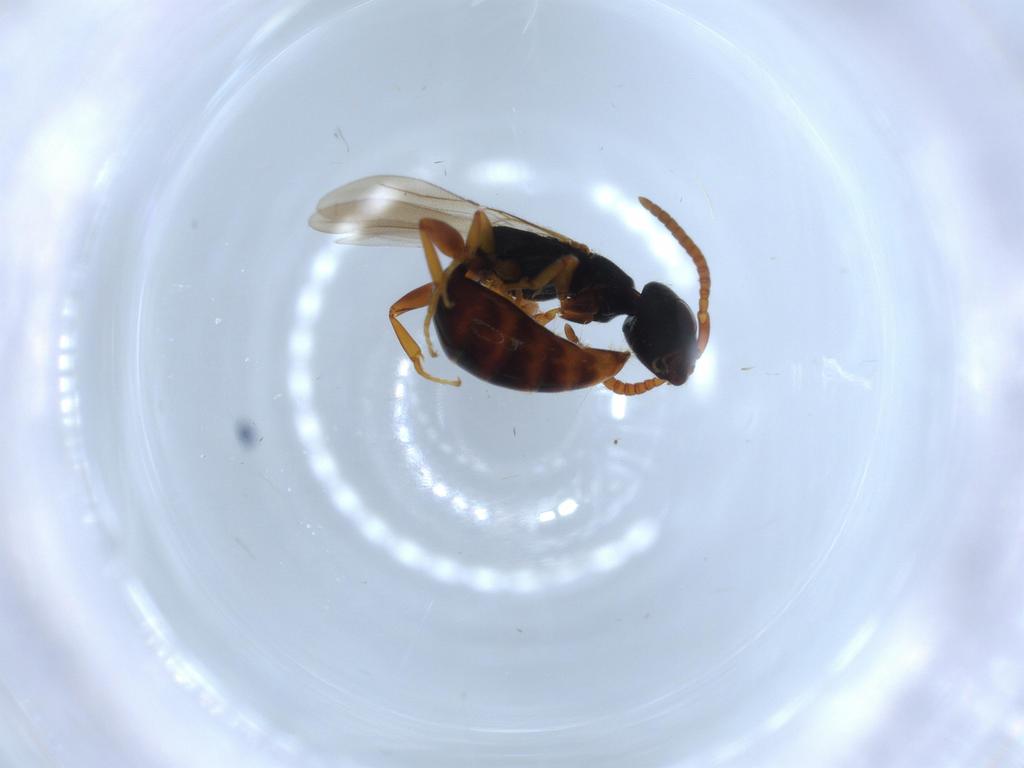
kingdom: Animalia
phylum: Arthropoda
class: Insecta
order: Hymenoptera
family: Bethylidae
